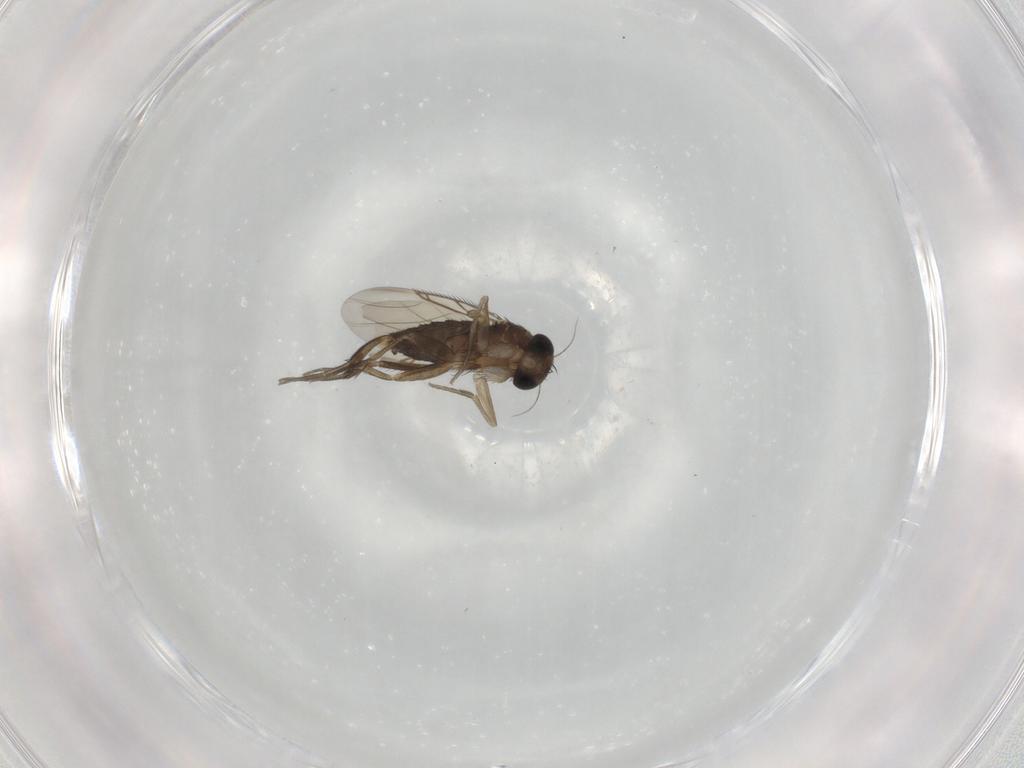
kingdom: Animalia
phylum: Arthropoda
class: Insecta
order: Diptera
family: Phoridae
